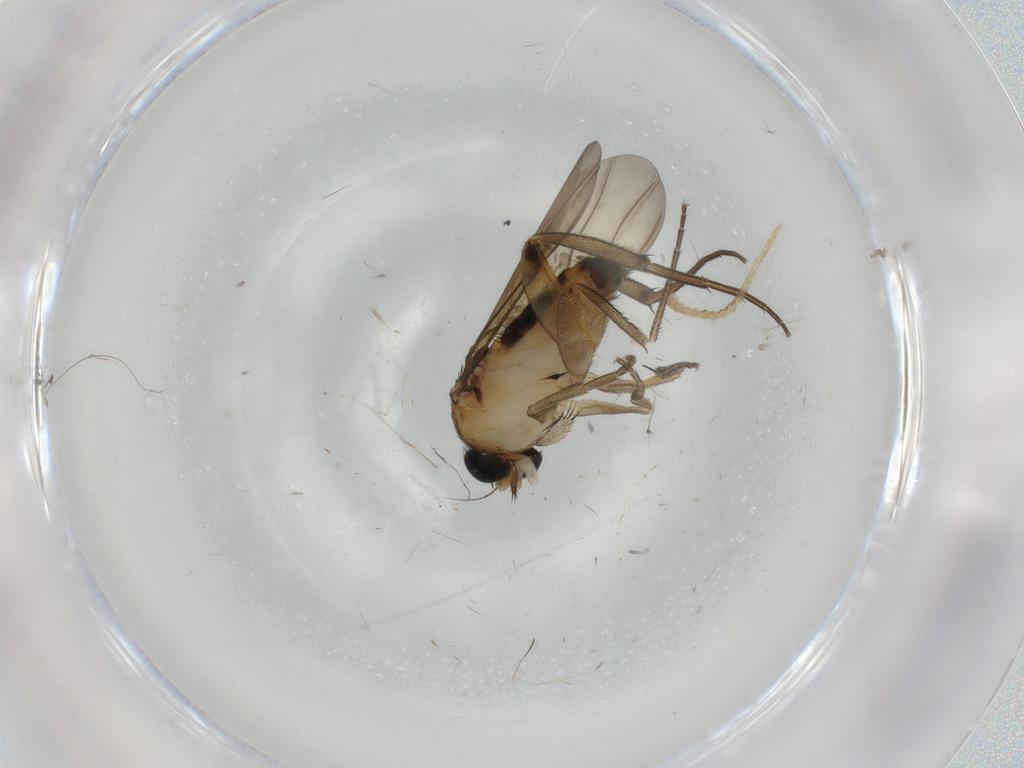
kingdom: Animalia
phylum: Arthropoda
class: Insecta
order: Diptera
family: Cecidomyiidae
